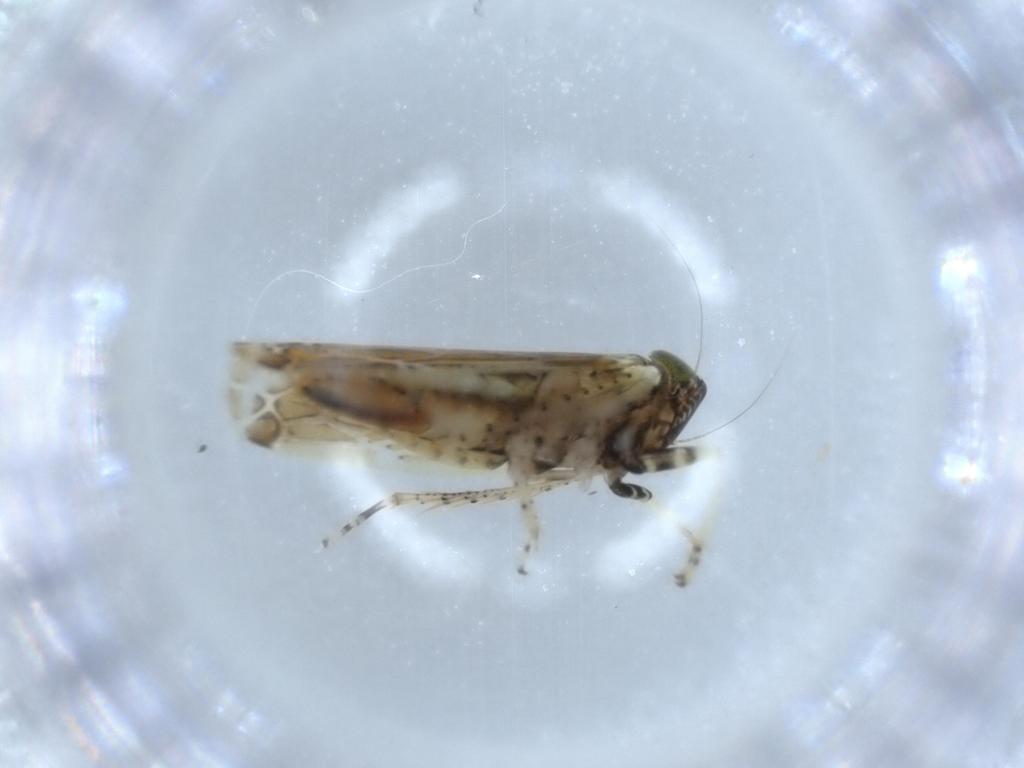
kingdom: Animalia
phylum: Arthropoda
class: Insecta
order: Hemiptera
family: Cicadellidae
